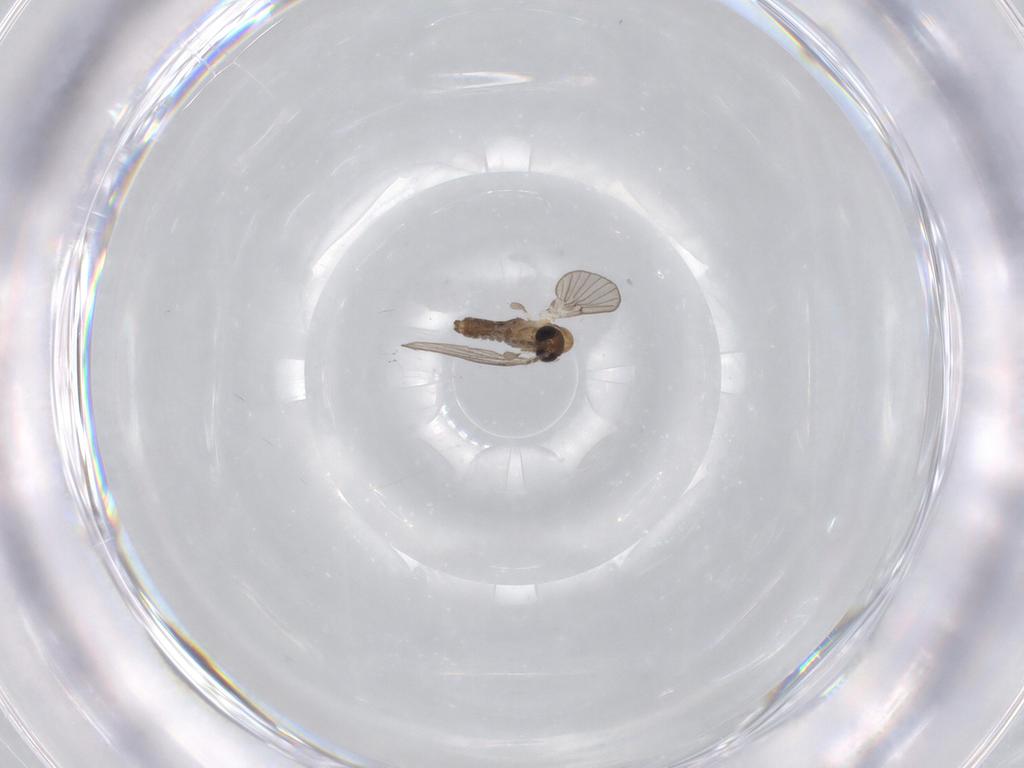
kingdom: Animalia
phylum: Arthropoda
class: Insecta
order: Diptera
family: Psychodidae
